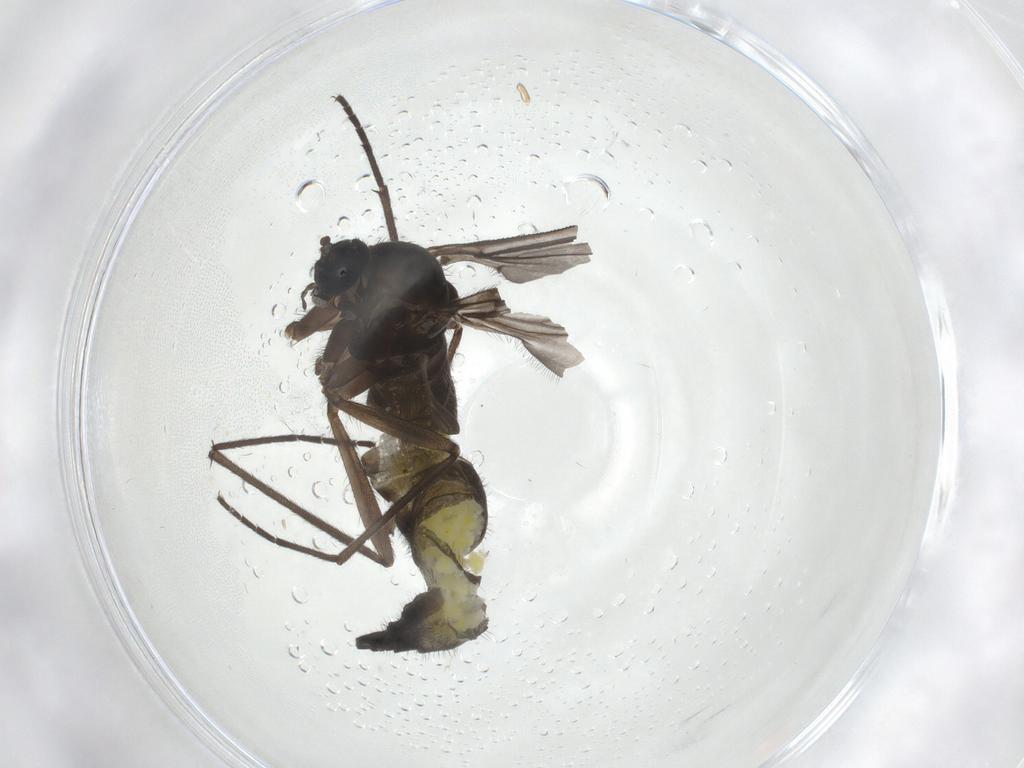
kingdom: Animalia
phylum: Arthropoda
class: Insecta
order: Diptera
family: Sciaridae
